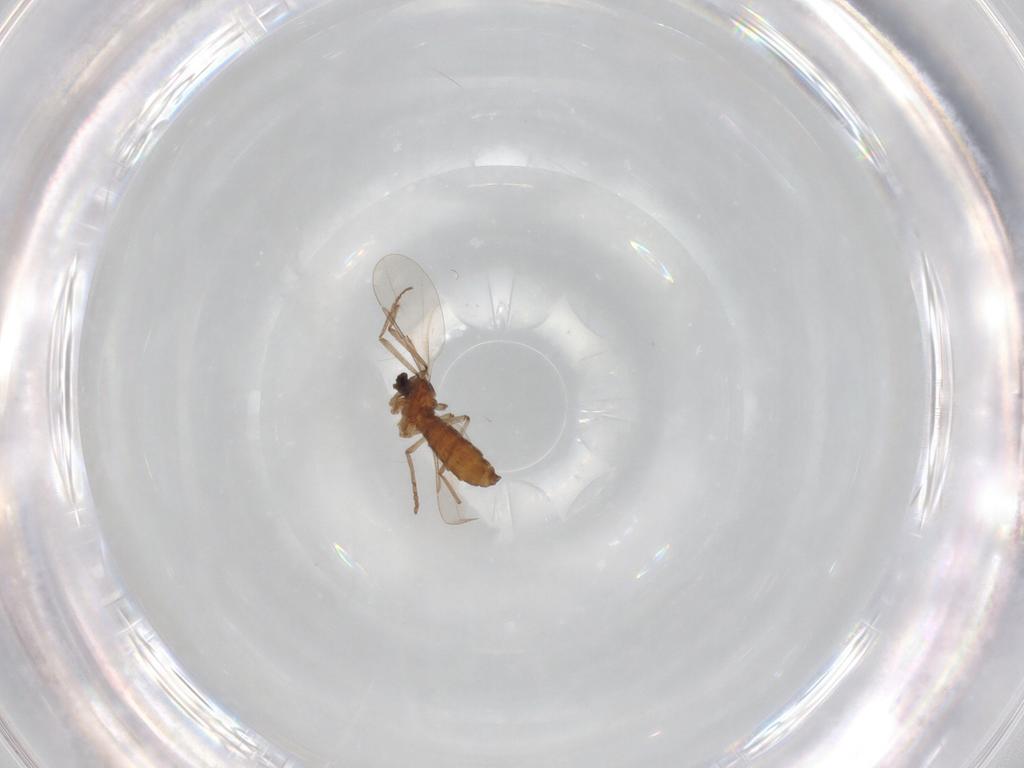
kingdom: Animalia
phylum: Arthropoda
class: Insecta
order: Diptera
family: Cecidomyiidae
